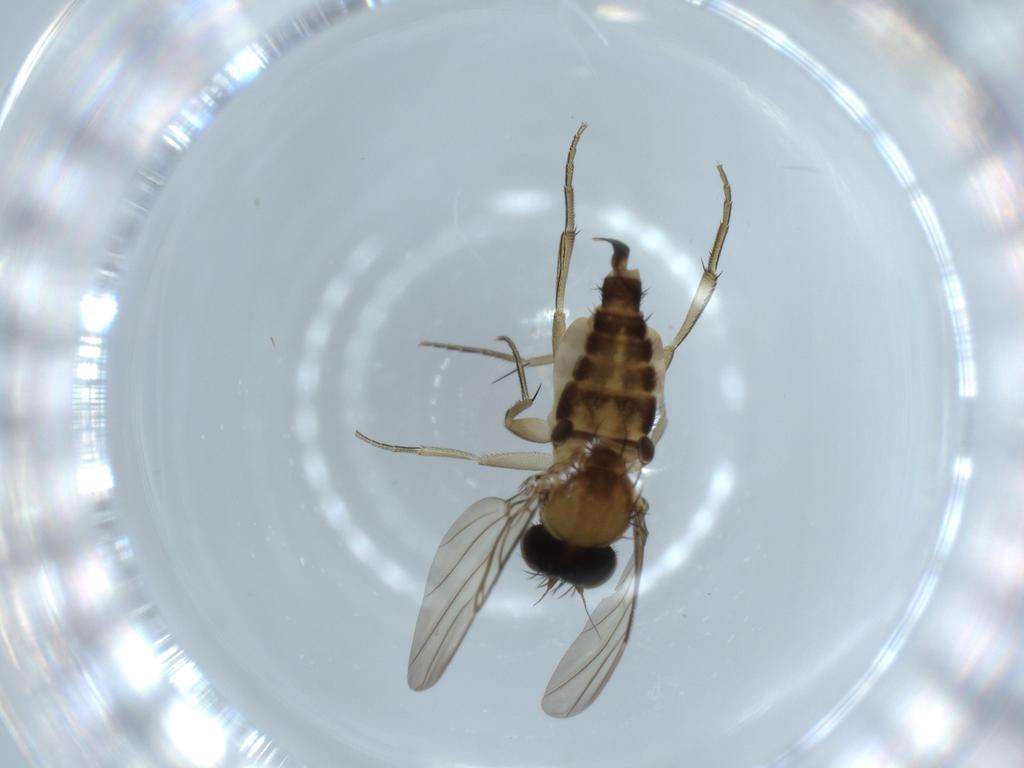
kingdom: Animalia
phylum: Arthropoda
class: Insecta
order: Diptera
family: Phoridae
